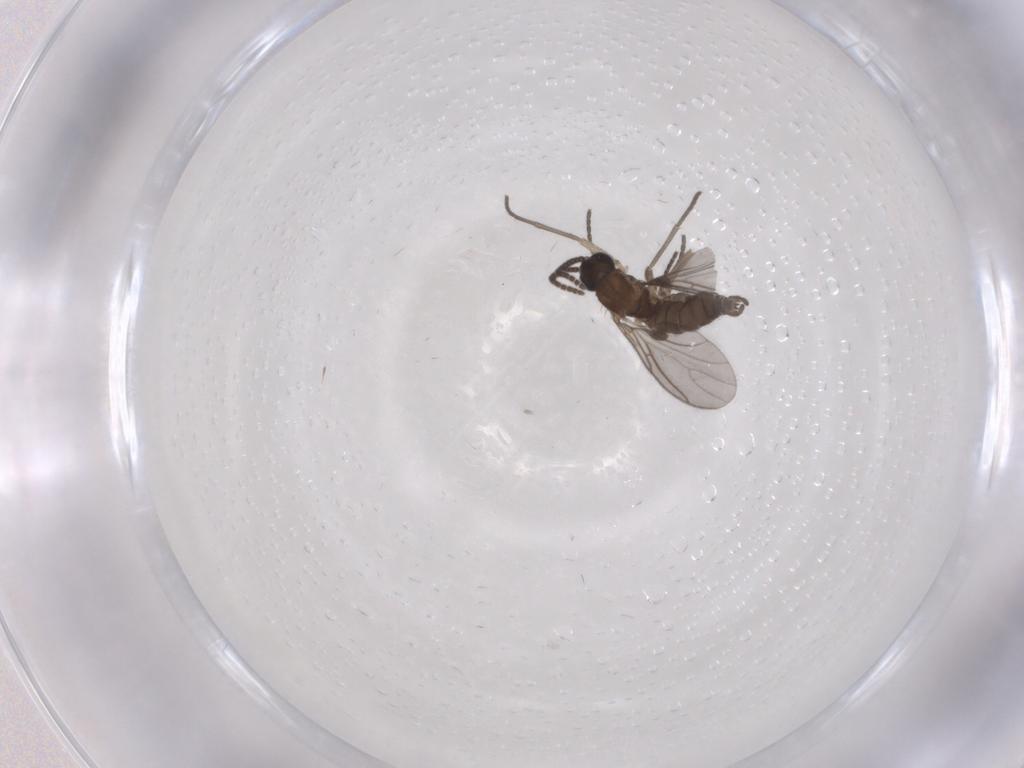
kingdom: Animalia
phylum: Arthropoda
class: Insecta
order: Diptera
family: Sciaridae
